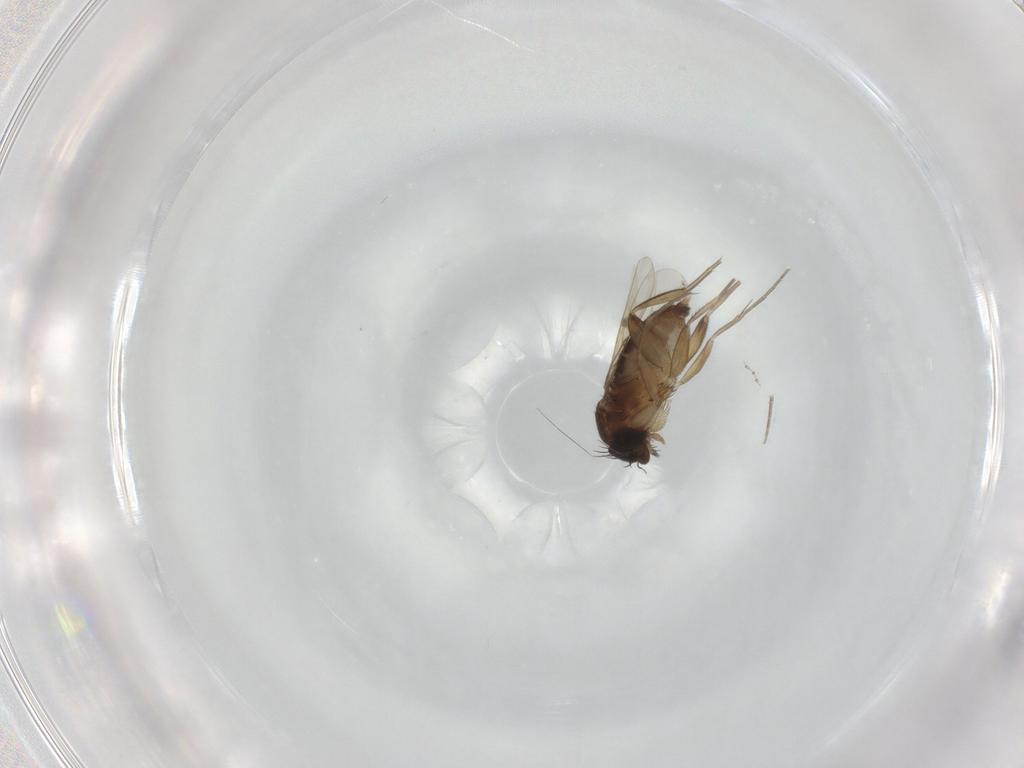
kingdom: Animalia
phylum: Arthropoda
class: Insecta
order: Diptera
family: Phoridae
